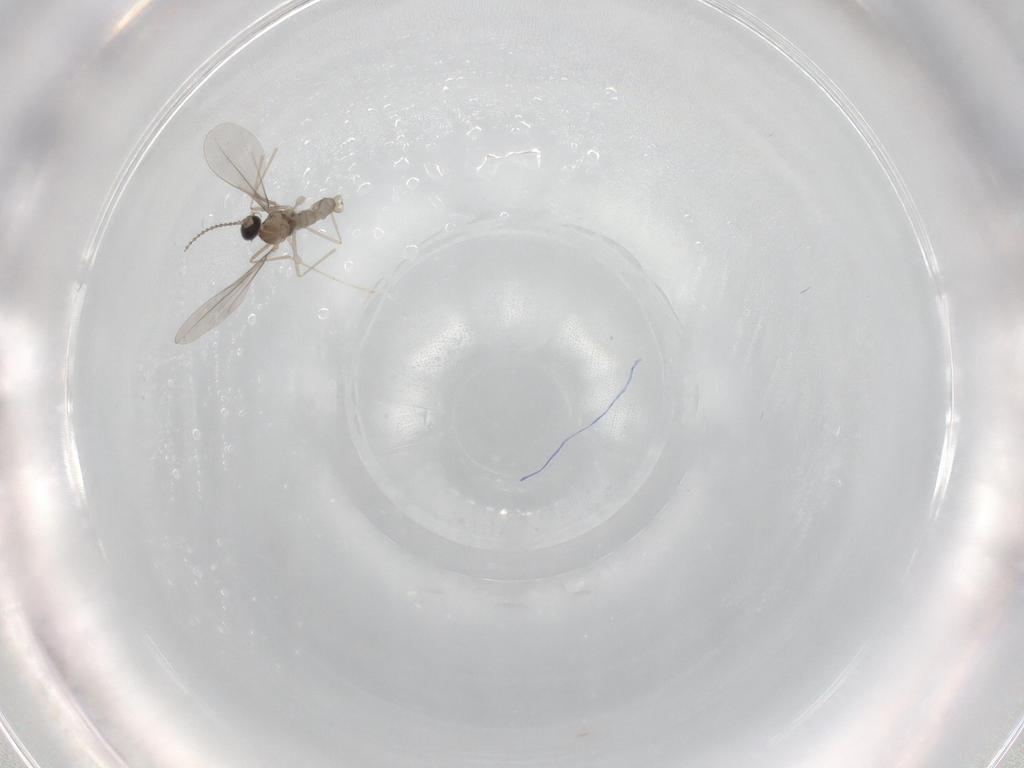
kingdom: Animalia
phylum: Arthropoda
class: Insecta
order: Diptera
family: Cecidomyiidae
